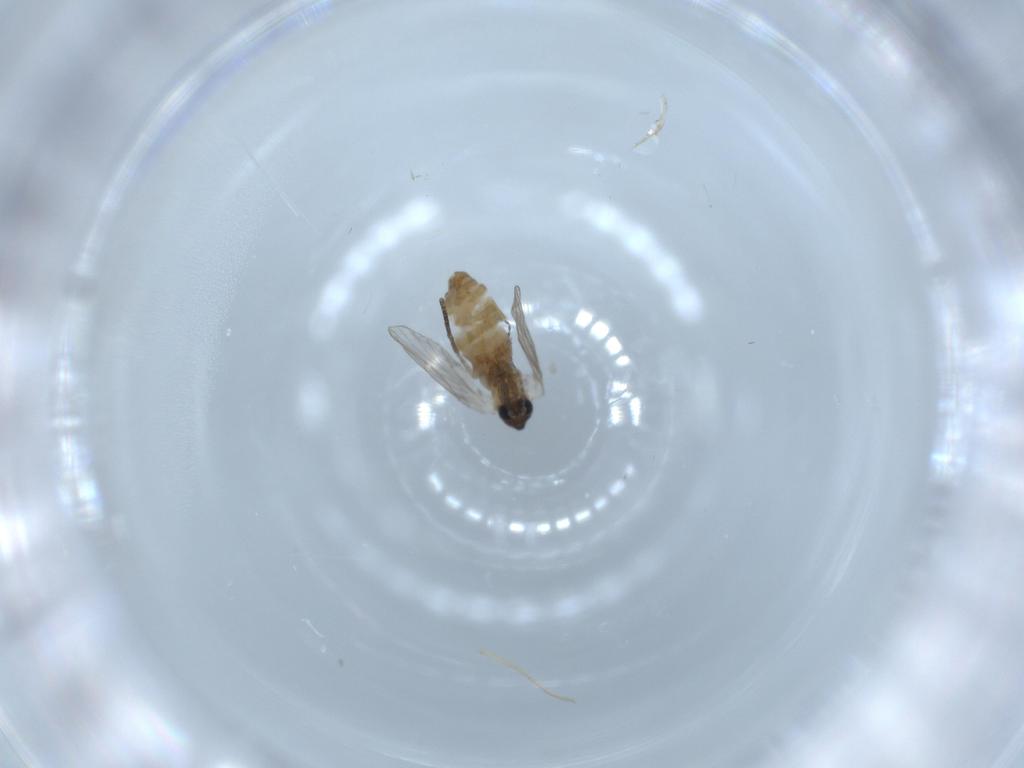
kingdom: Animalia
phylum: Arthropoda
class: Insecta
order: Diptera
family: Psychodidae
